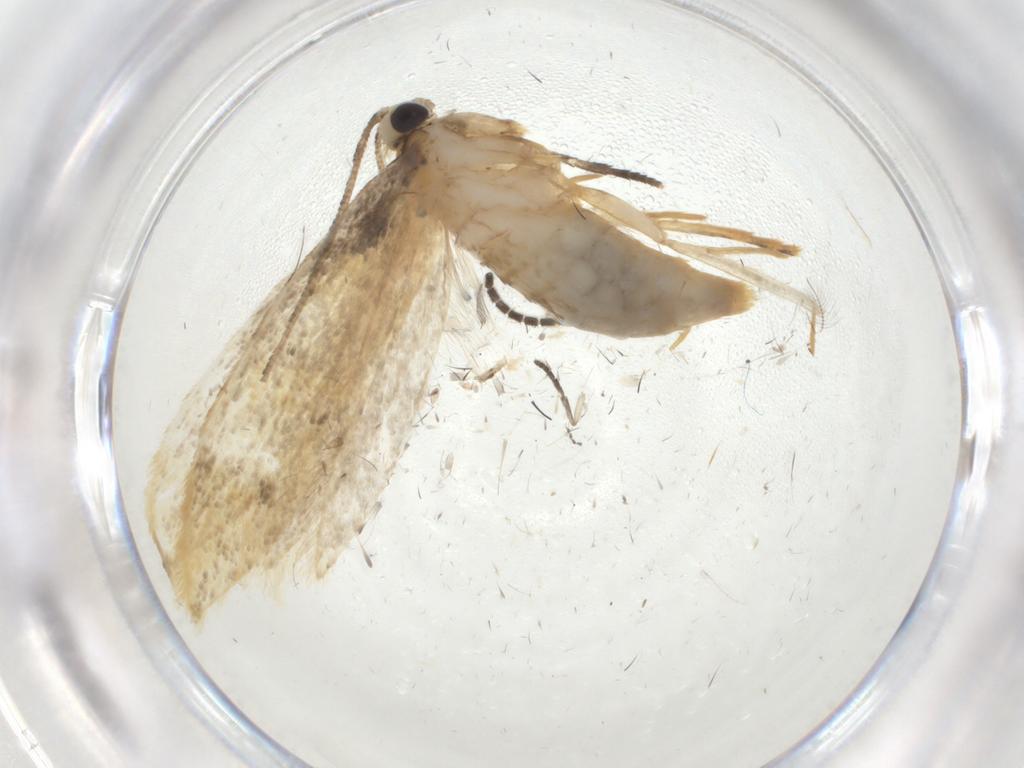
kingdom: Animalia
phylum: Arthropoda
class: Insecta
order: Lepidoptera
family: Tineidae
